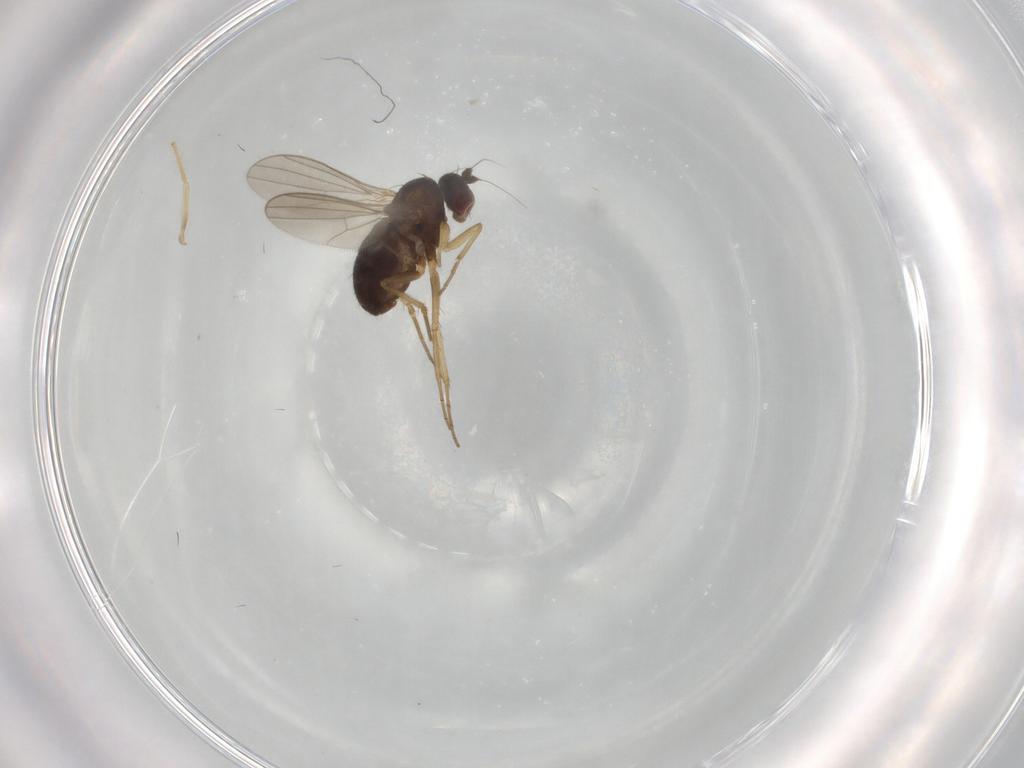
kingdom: Animalia
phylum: Arthropoda
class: Insecta
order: Diptera
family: Dolichopodidae
